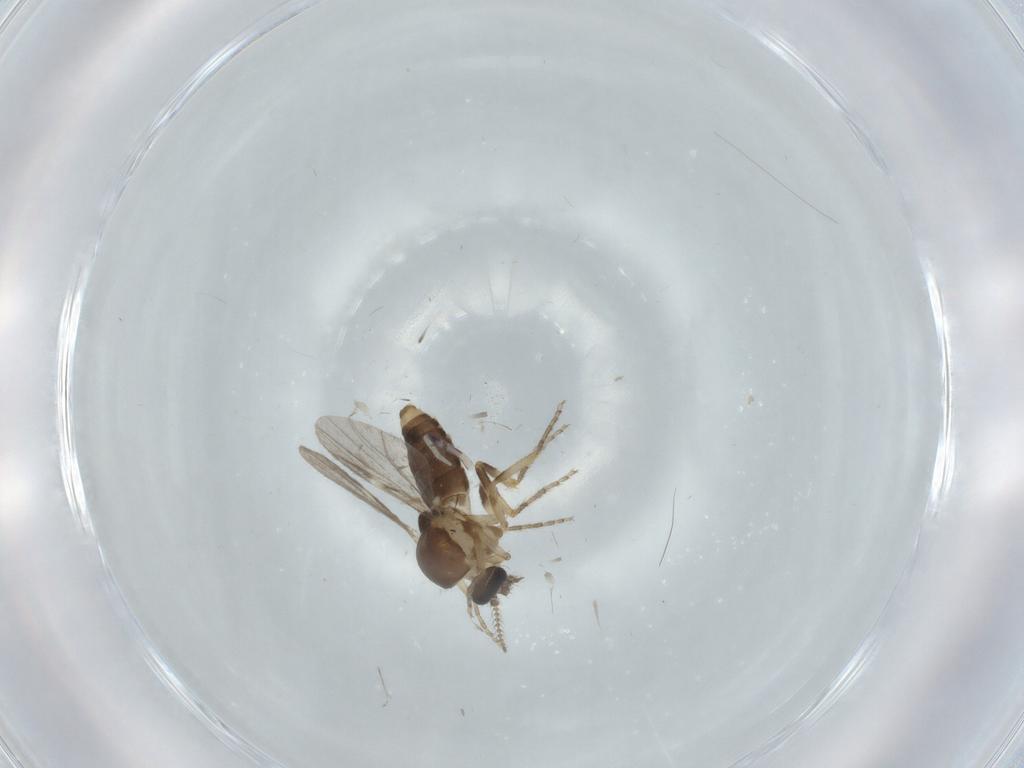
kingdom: Animalia
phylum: Arthropoda
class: Insecta
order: Diptera
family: Ceratopogonidae
